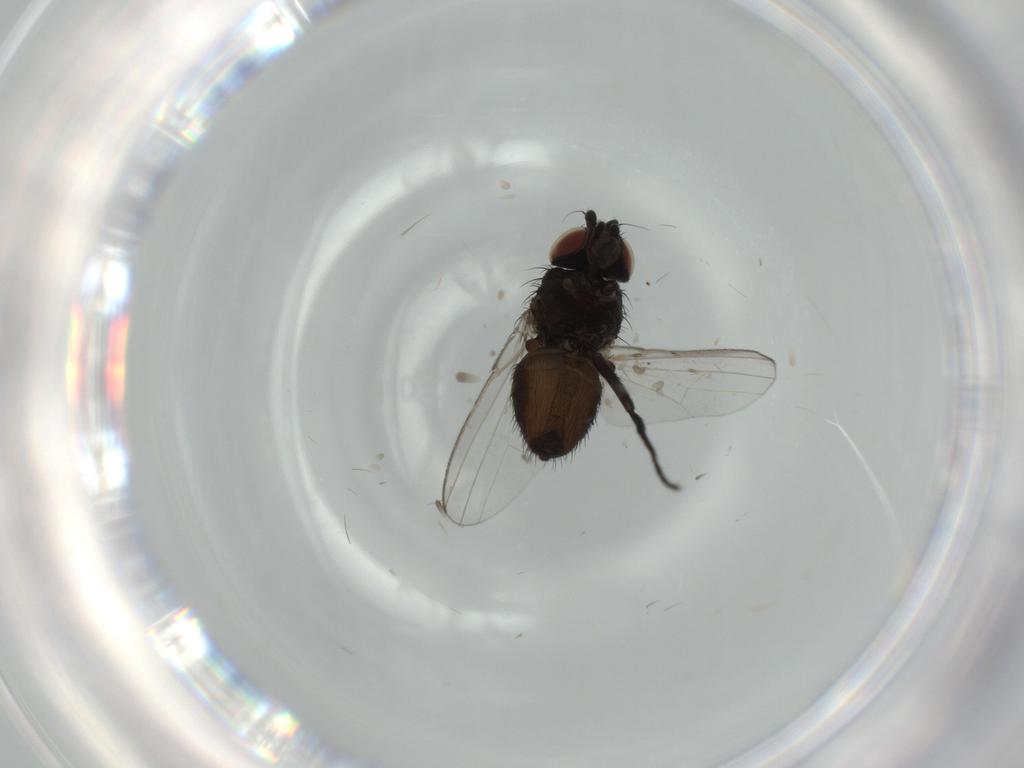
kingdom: Animalia
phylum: Arthropoda
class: Insecta
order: Diptera
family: Milichiidae
